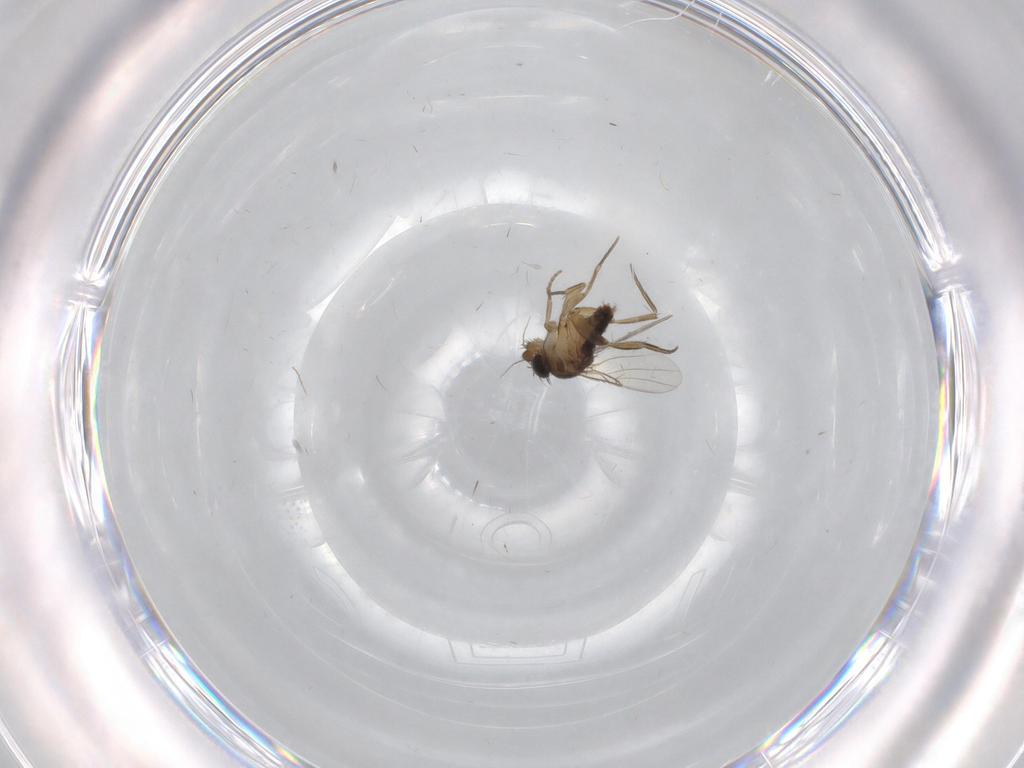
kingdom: Animalia
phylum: Arthropoda
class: Insecta
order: Diptera
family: Chironomidae
